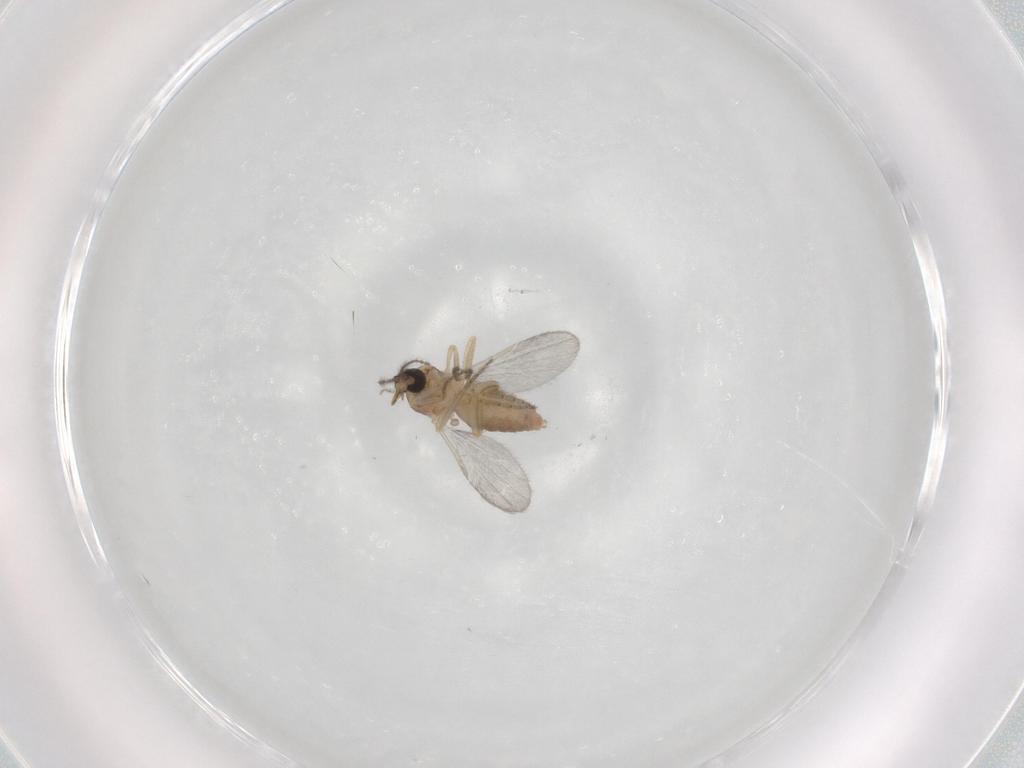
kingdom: Animalia
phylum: Arthropoda
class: Insecta
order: Diptera
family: Ceratopogonidae
